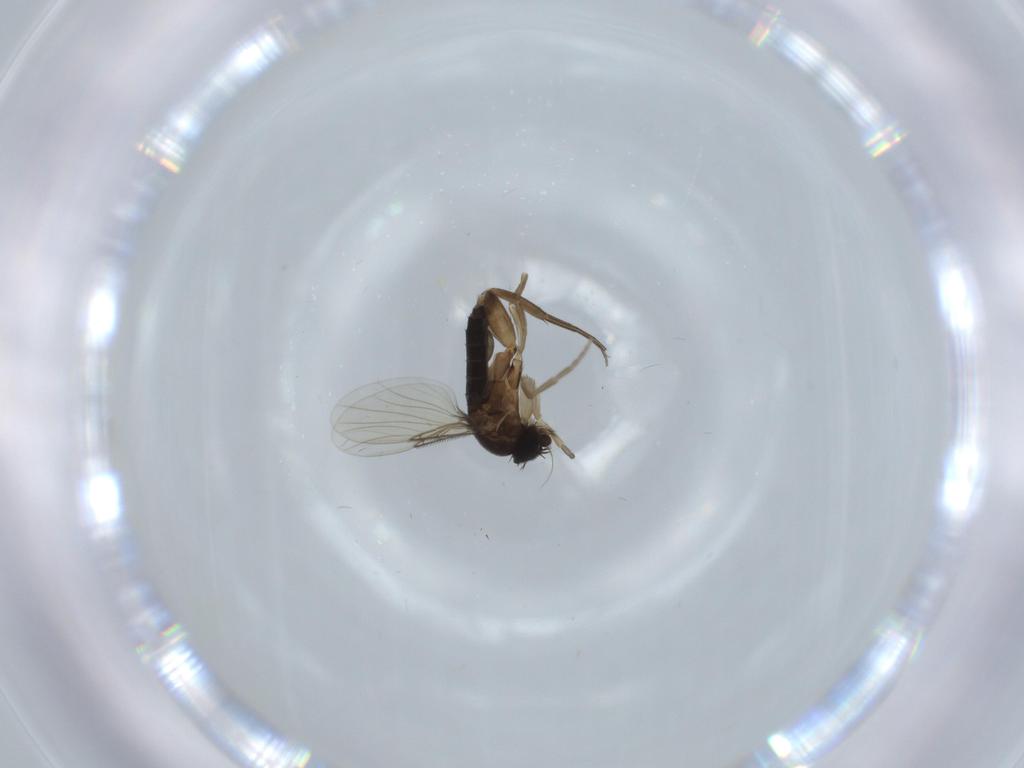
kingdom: Animalia
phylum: Arthropoda
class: Insecta
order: Diptera
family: Phoridae
